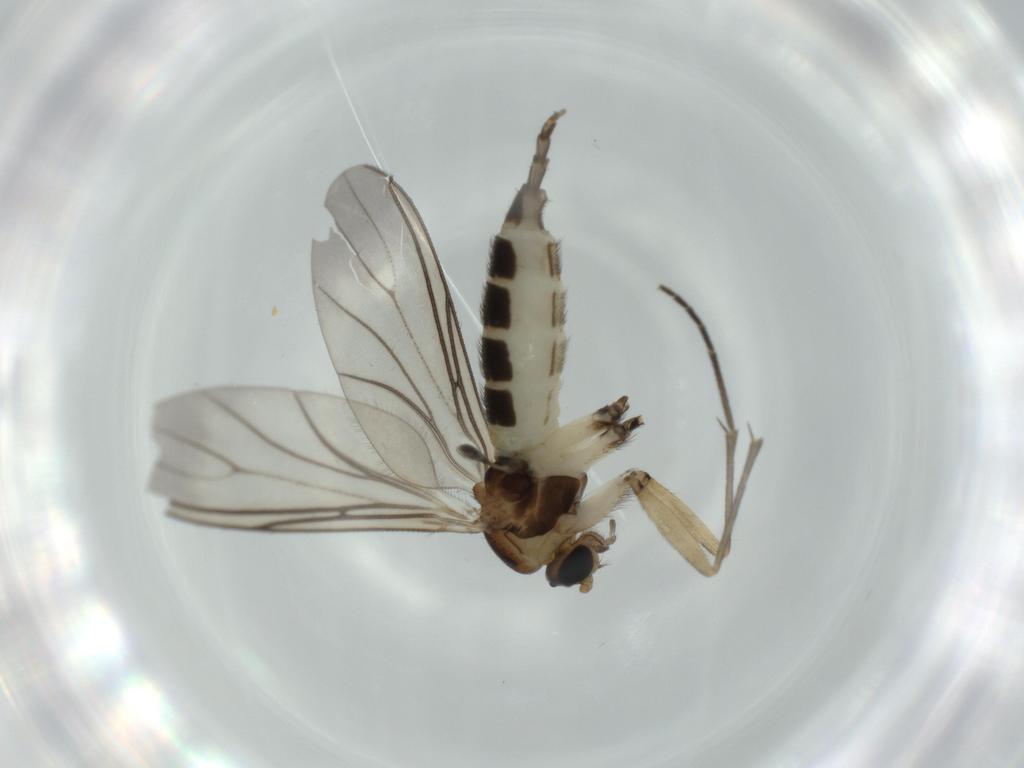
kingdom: Animalia
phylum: Arthropoda
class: Insecta
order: Diptera
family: Sciaridae
